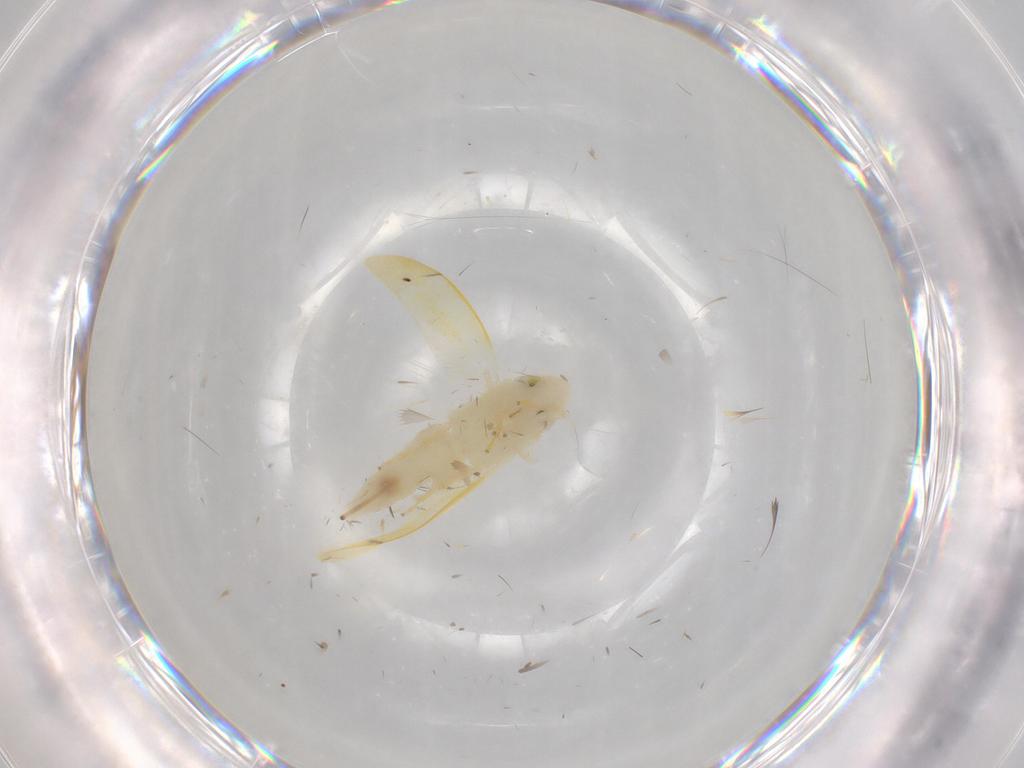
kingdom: Animalia
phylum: Arthropoda
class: Insecta
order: Hemiptera
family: Cicadellidae
